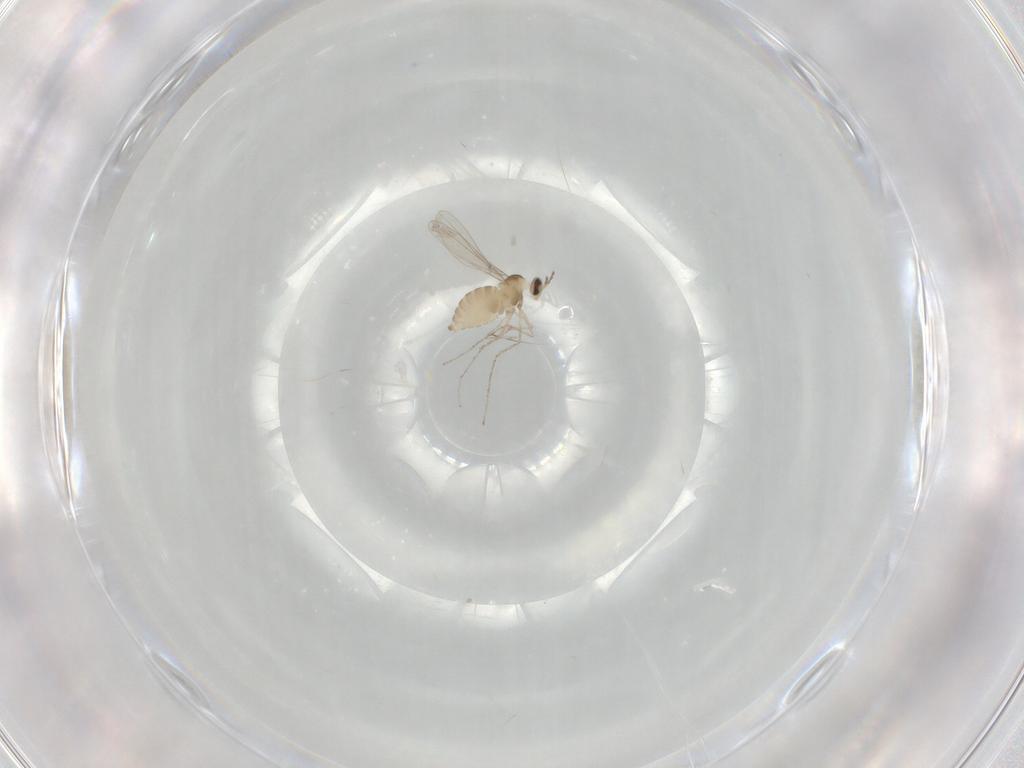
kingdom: Animalia
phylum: Arthropoda
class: Insecta
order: Diptera
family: Cecidomyiidae
